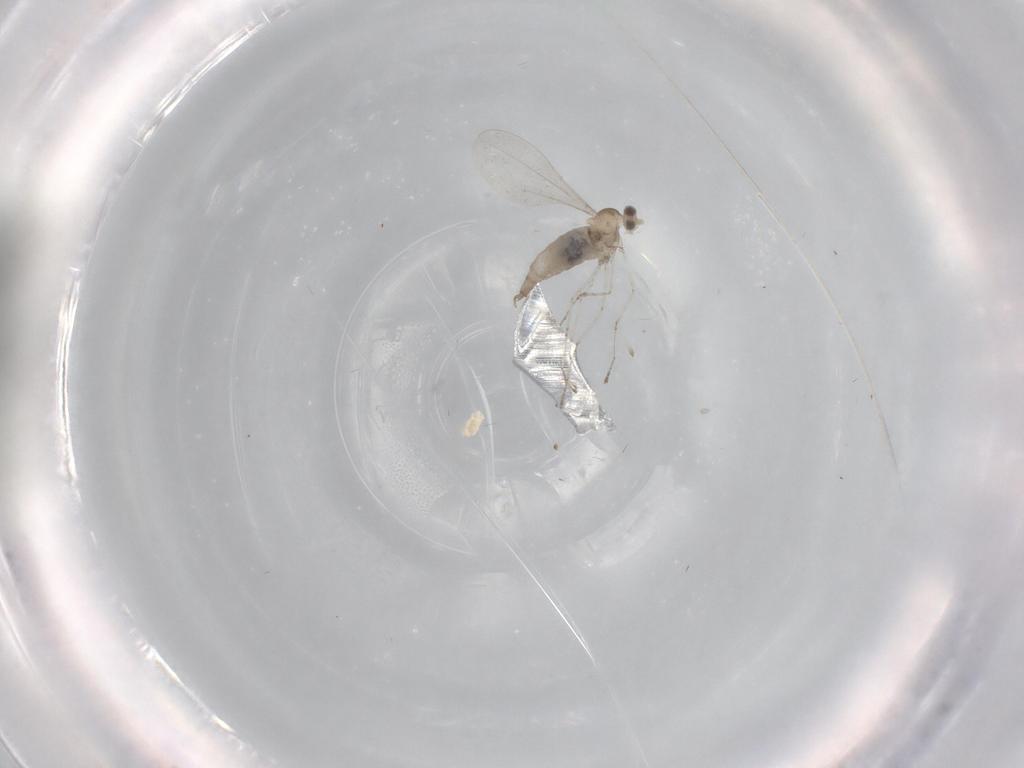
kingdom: Animalia
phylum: Arthropoda
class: Insecta
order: Diptera
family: Cecidomyiidae
